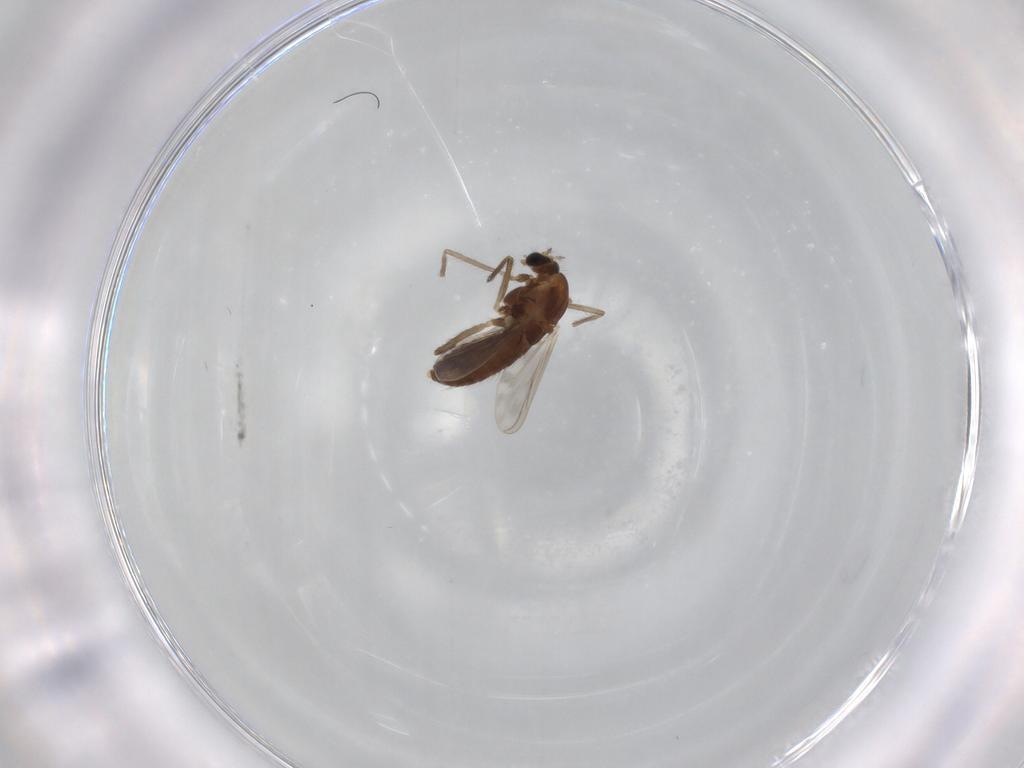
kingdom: Animalia
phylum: Arthropoda
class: Insecta
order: Diptera
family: Chironomidae
